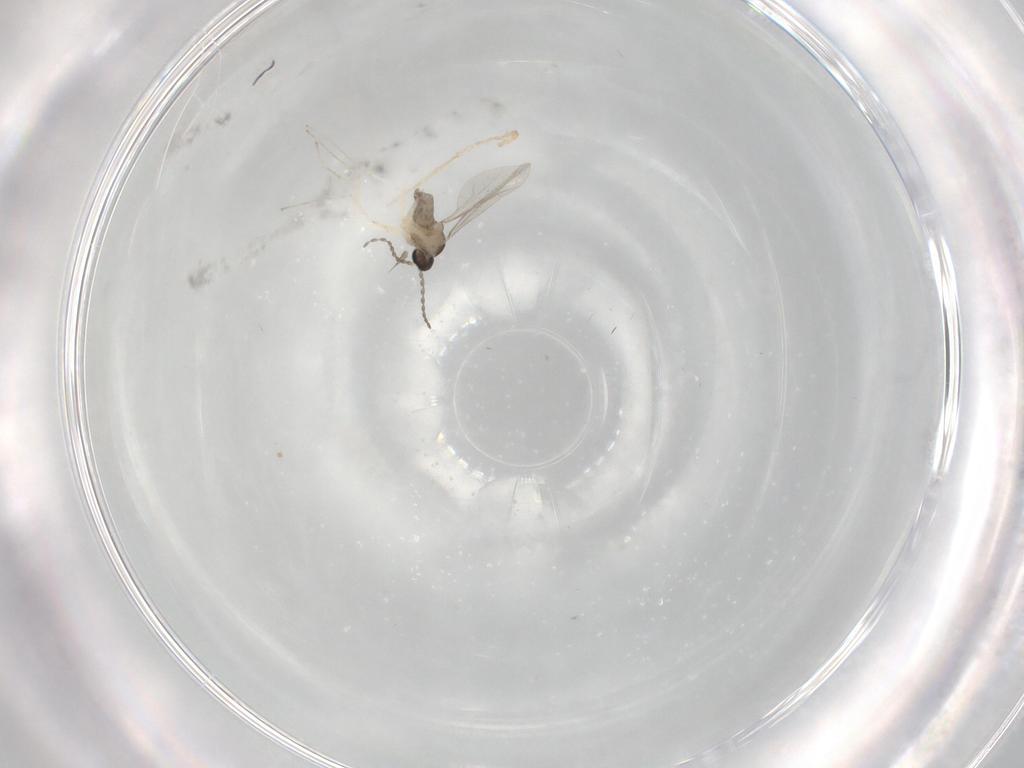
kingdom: Animalia
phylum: Arthropoda
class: Insecta
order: Diptera
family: Cecidomyiidae
